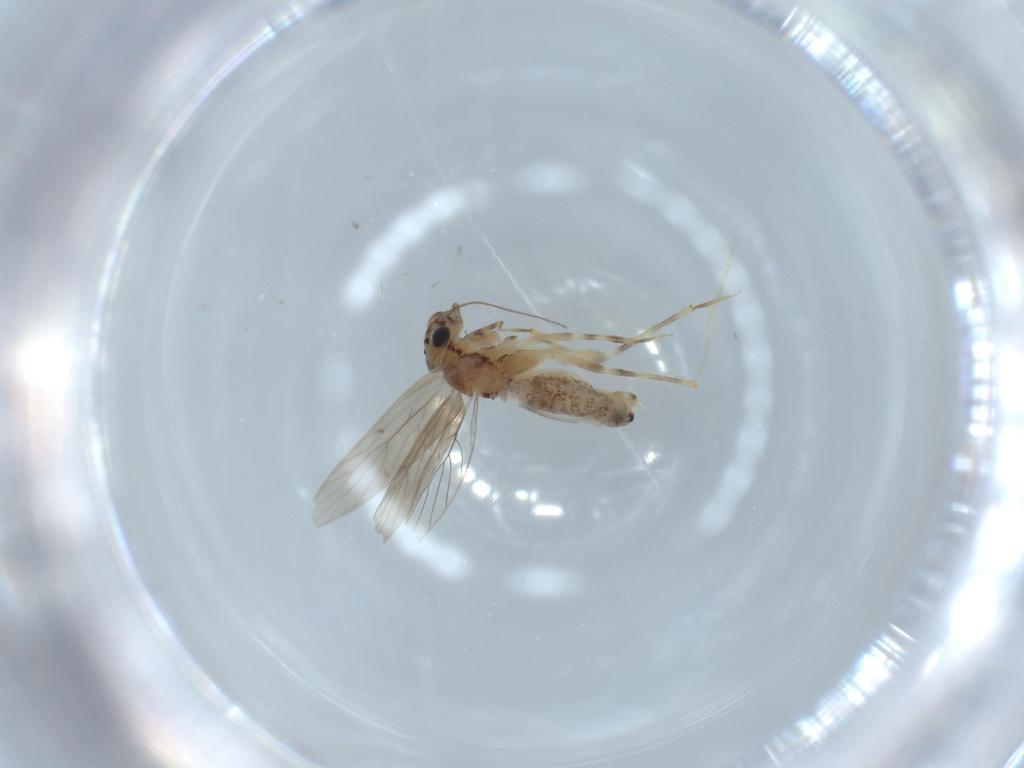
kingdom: Animalia
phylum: Arthropoda
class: Insecta
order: Psocodea
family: Lepidopsocidae
